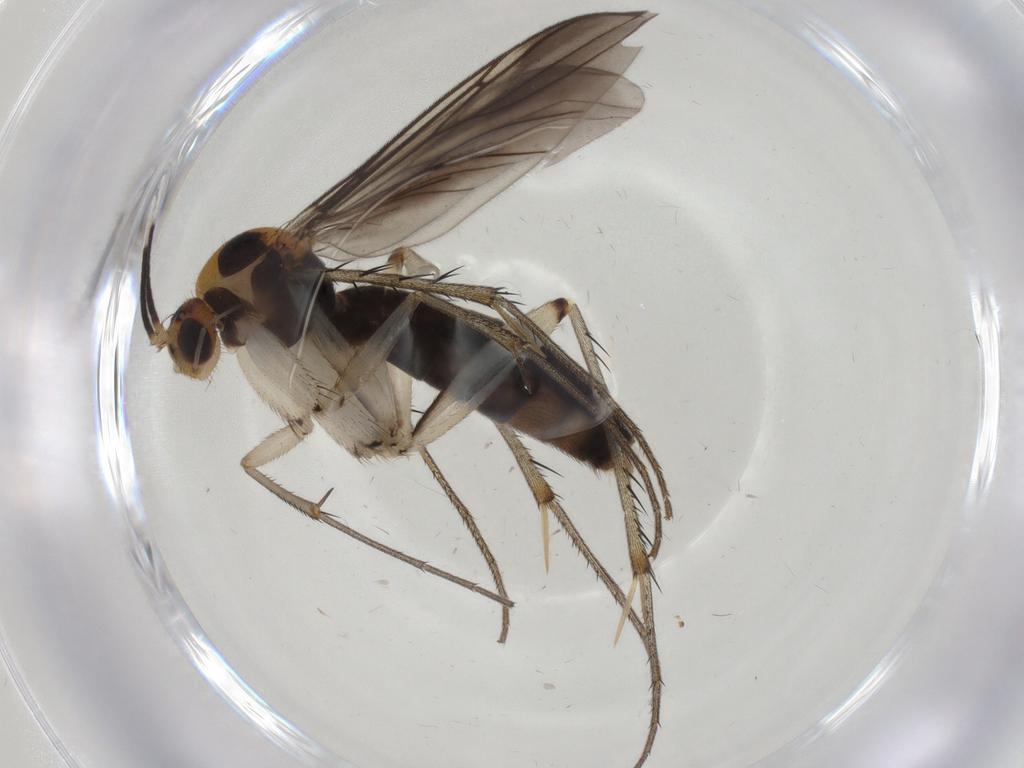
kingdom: Animalia
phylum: Arthropoda
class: Insecta
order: Diptera
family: Mycetophilidae
